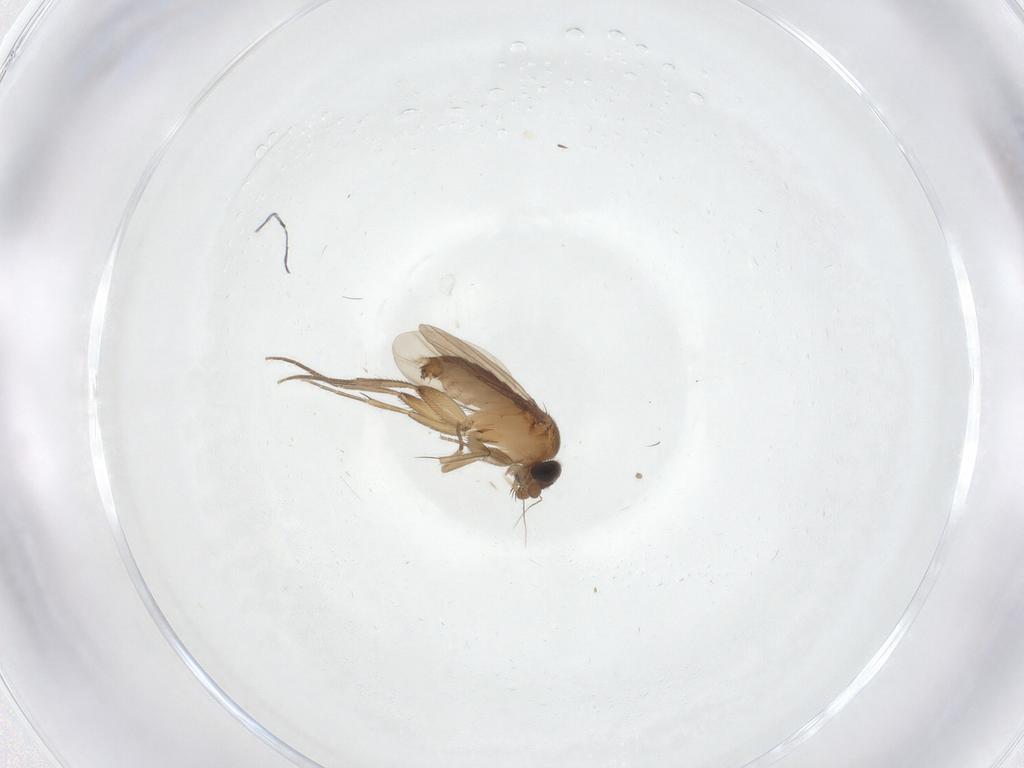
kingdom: Animalia
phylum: Arthropoda
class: Insecta
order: Diptera
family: Phoridae
